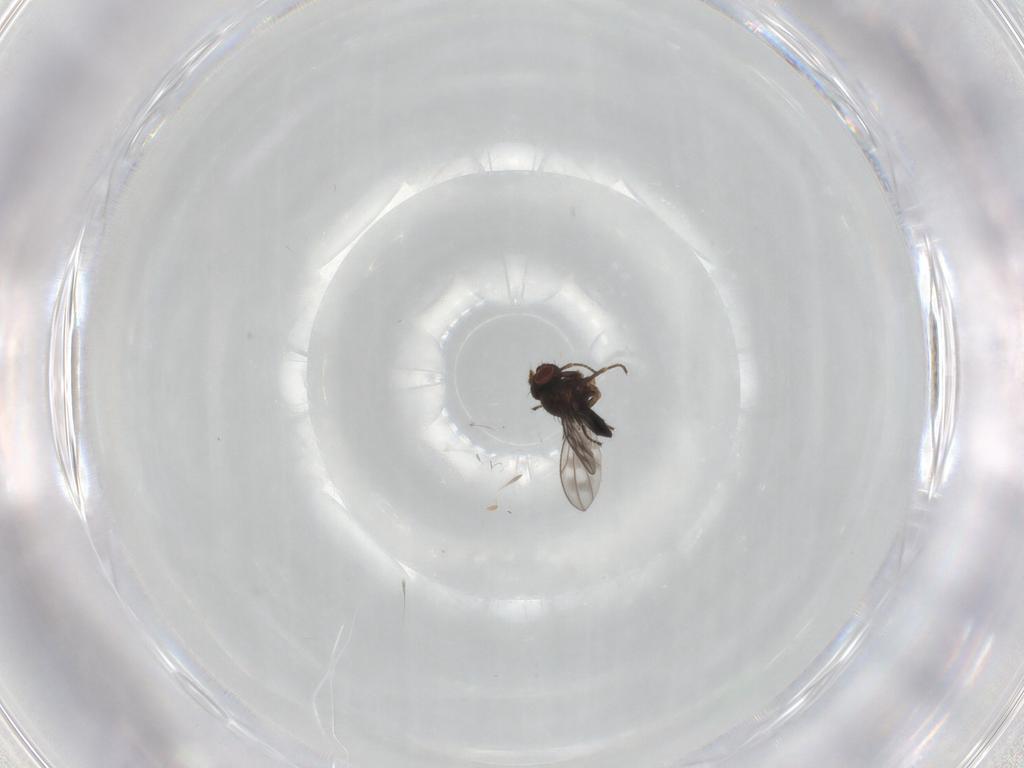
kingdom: Animalia
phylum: Arthropoda
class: Insecta
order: Diptera
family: Ephydridae
